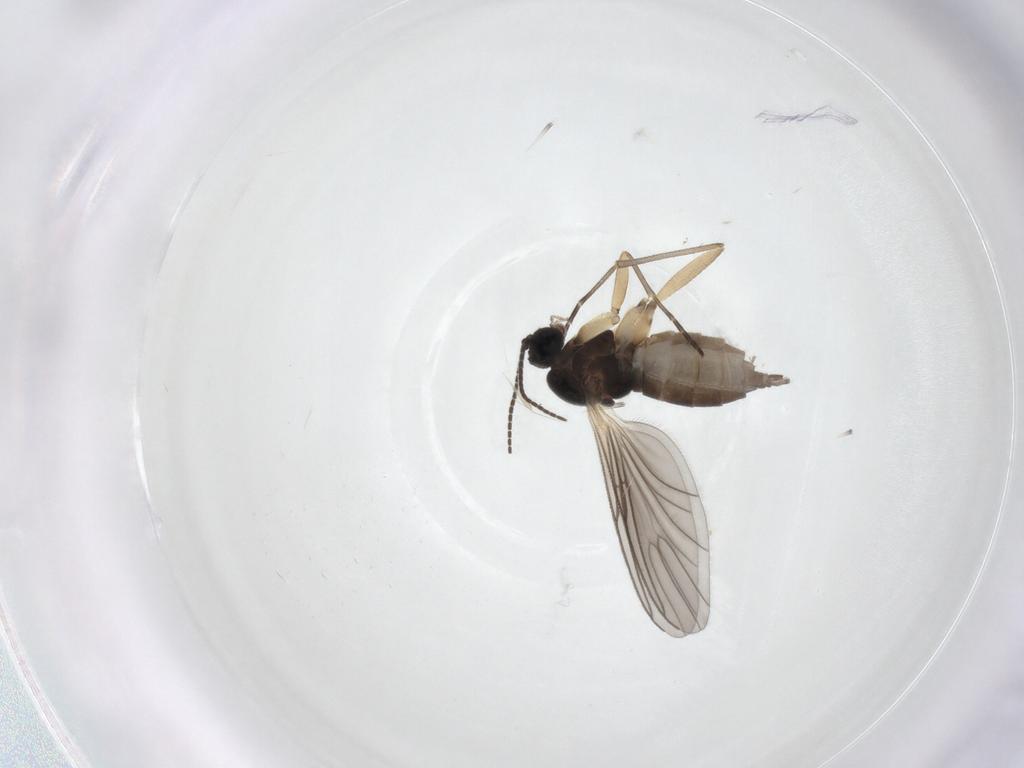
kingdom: Animalia
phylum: Arthropoda
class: Insecta
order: Diptera
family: Sciaridae
